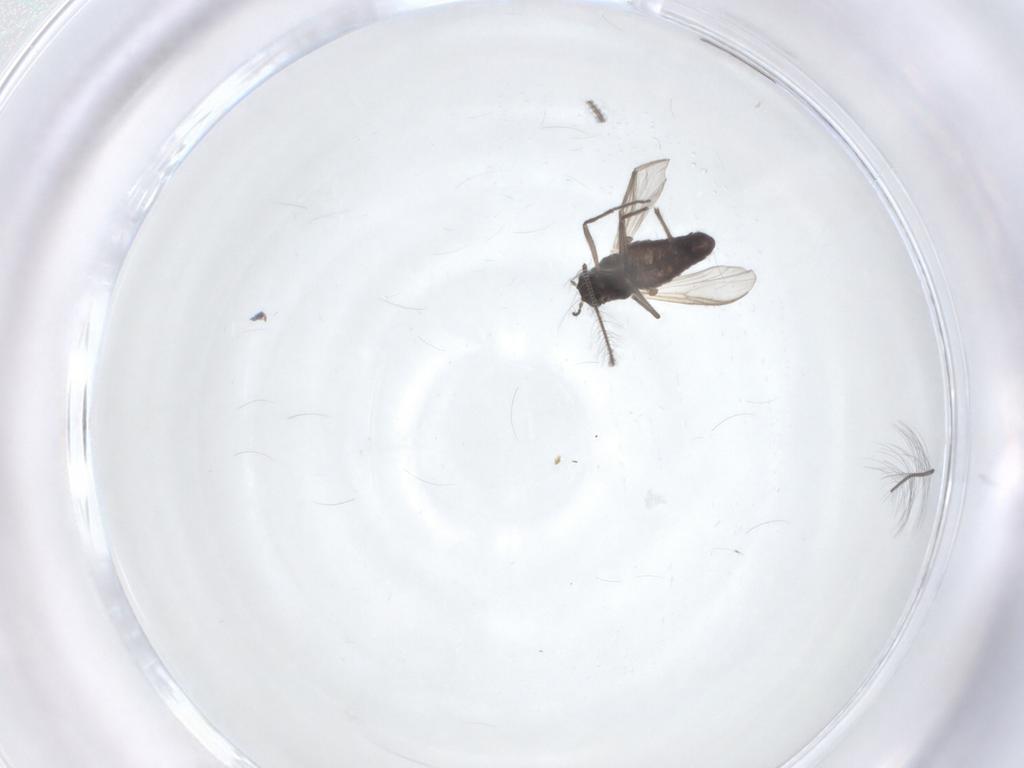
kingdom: Animalia
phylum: Arthropoda
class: Insecta
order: Diptera
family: Chironomidae
